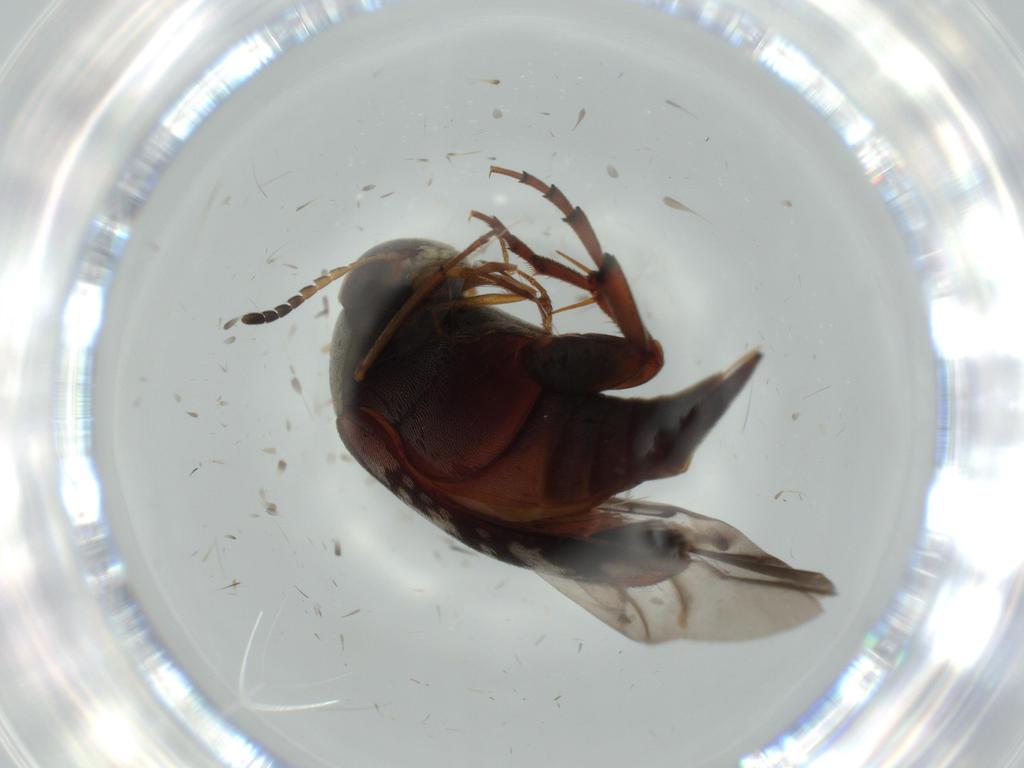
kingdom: Animalia
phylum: Arthropoda
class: Insecta
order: Coleoptera
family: Mordellidae
